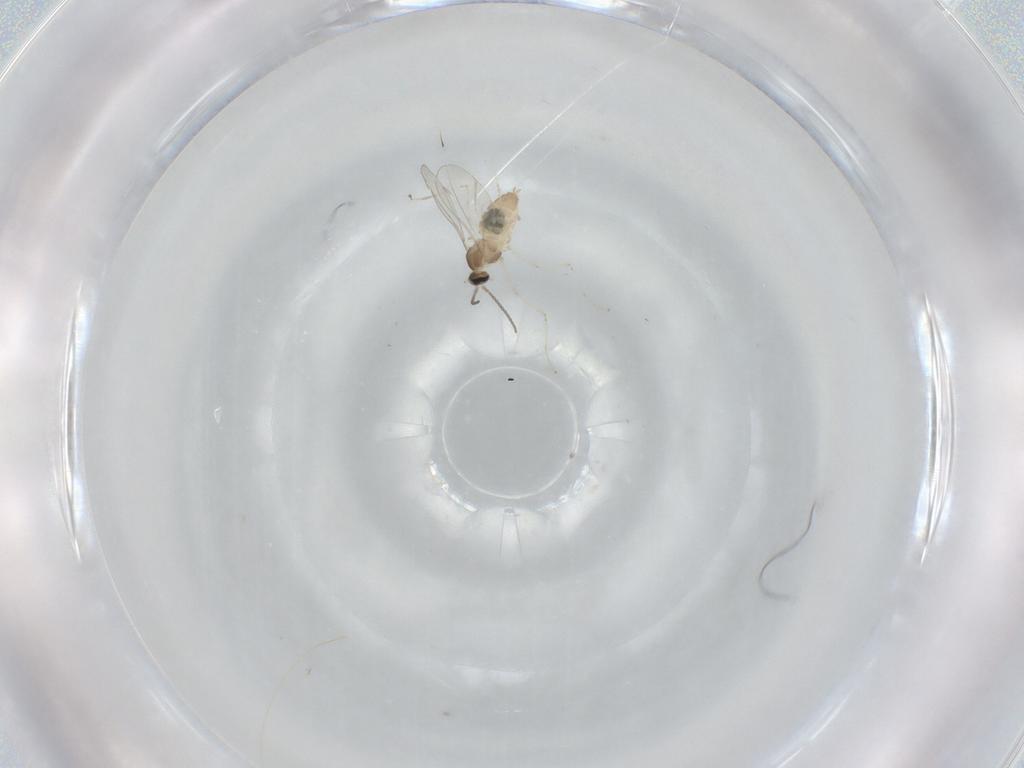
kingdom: Animalia
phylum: Arthropoda
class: Insecta
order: Diptera
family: Cecidomyiidae
